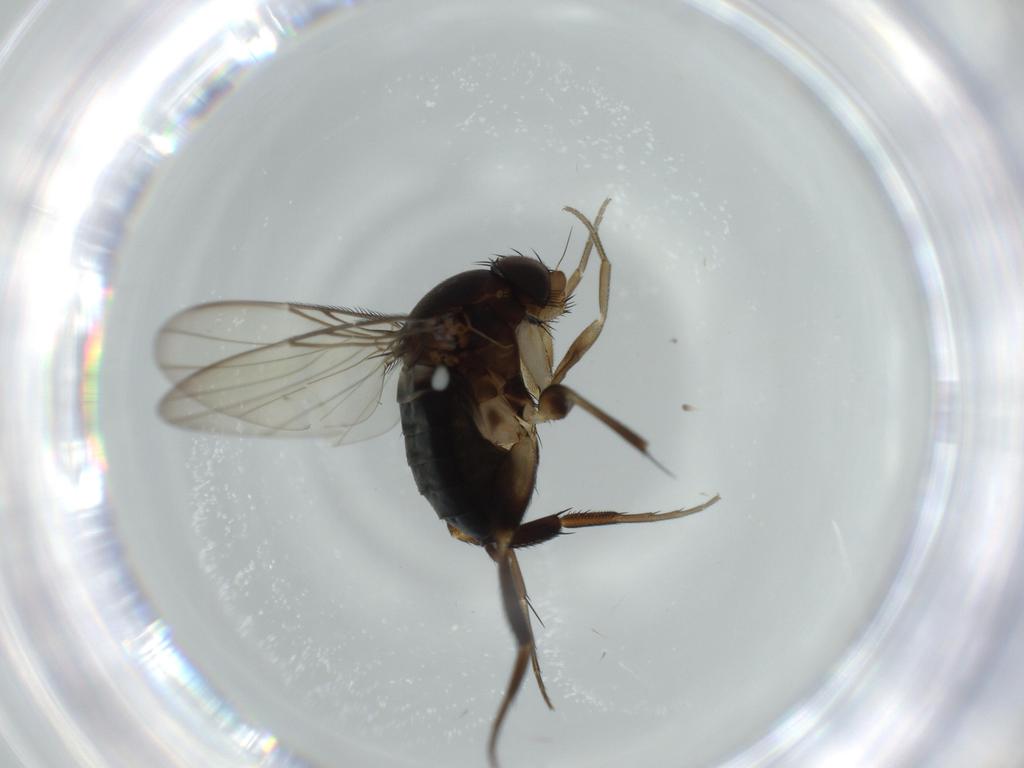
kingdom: Animalia
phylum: Arthropoda
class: Insecta
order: Diptera
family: Phoridae
